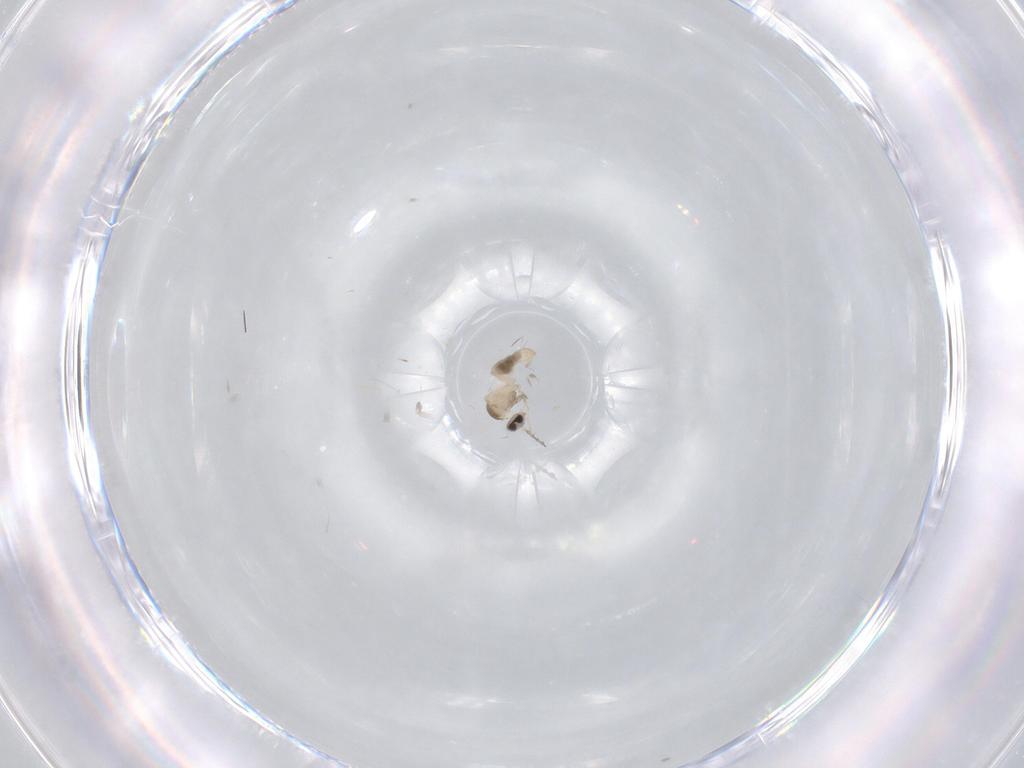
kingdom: Animalia
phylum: Arthropoda
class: Insecta
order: Diptera
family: Cecidomyiidae
